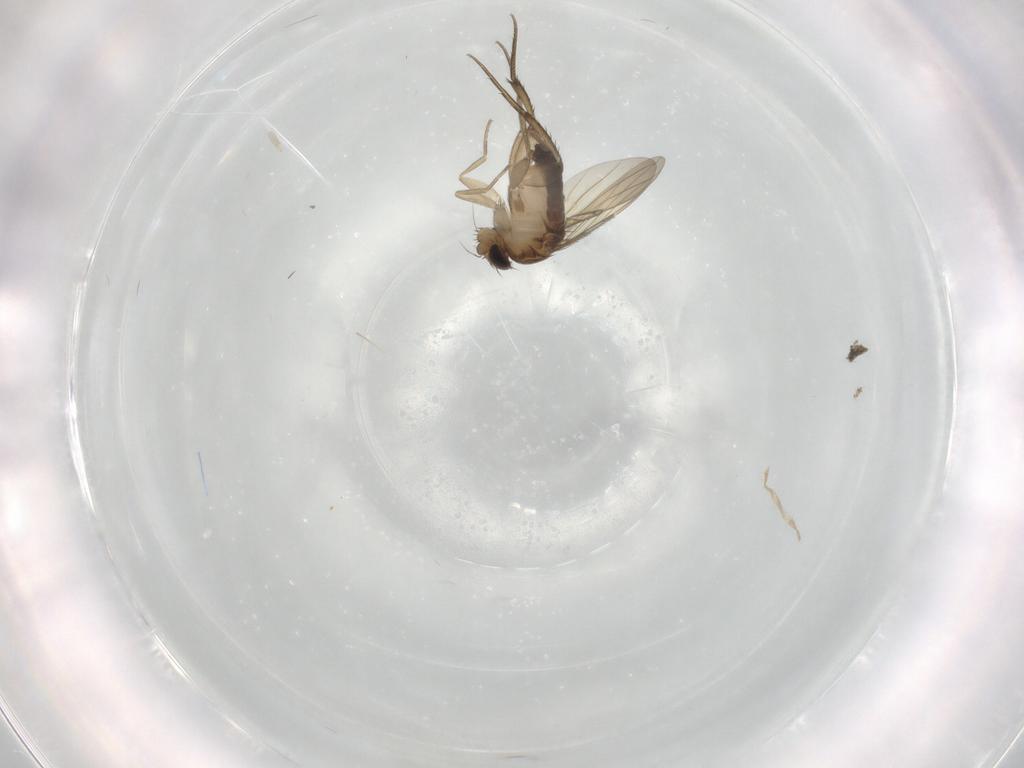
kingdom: Animalia
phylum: Arthropoda
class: Insecta
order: Diptera
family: Phoridae
